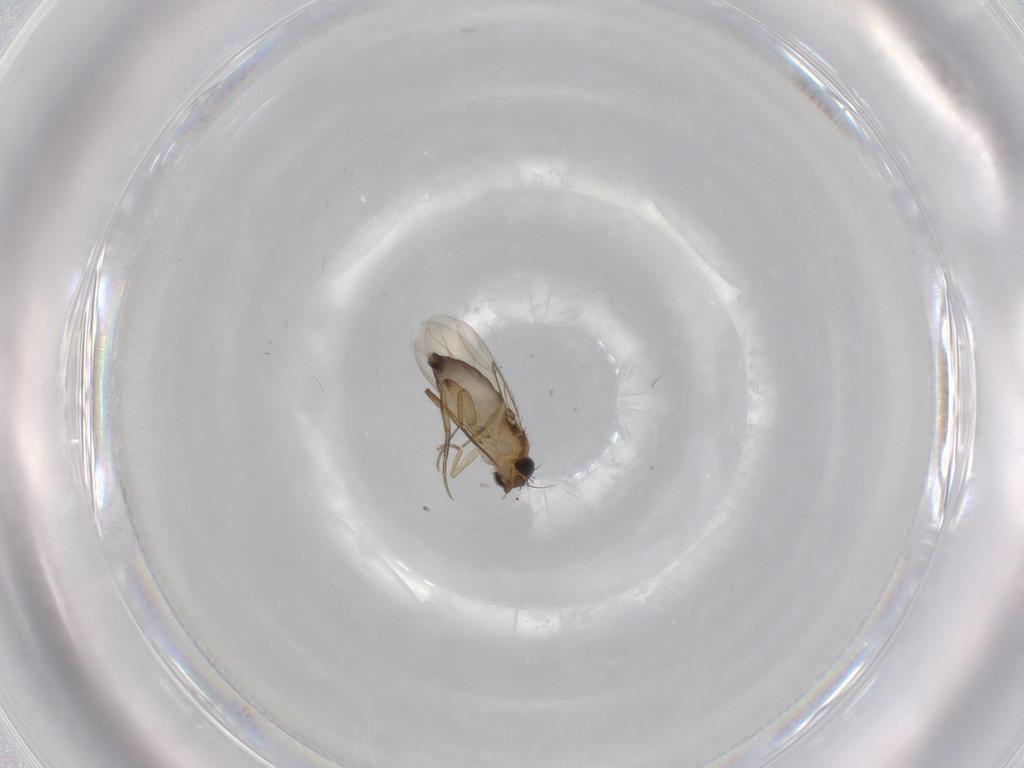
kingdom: Animalia
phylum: Arthropoda
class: Insecta
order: Diptera
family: Phoridae
